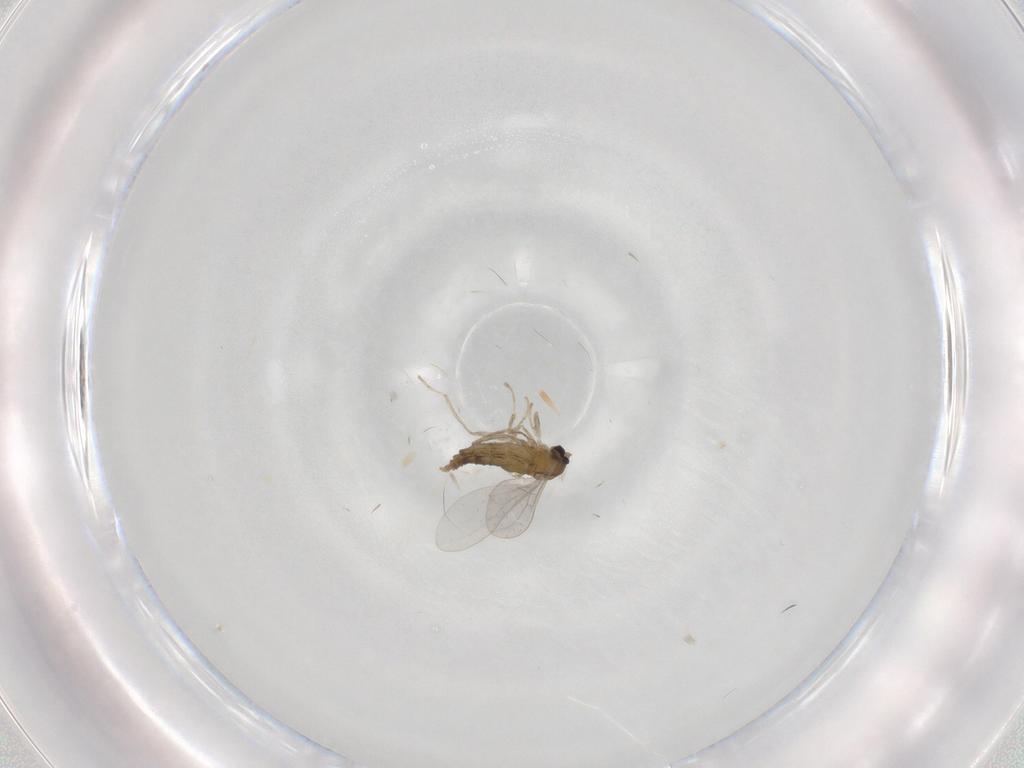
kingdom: Animalia
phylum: Arthropoda
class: Insecta
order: Diptera
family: Cecidomyiidae
